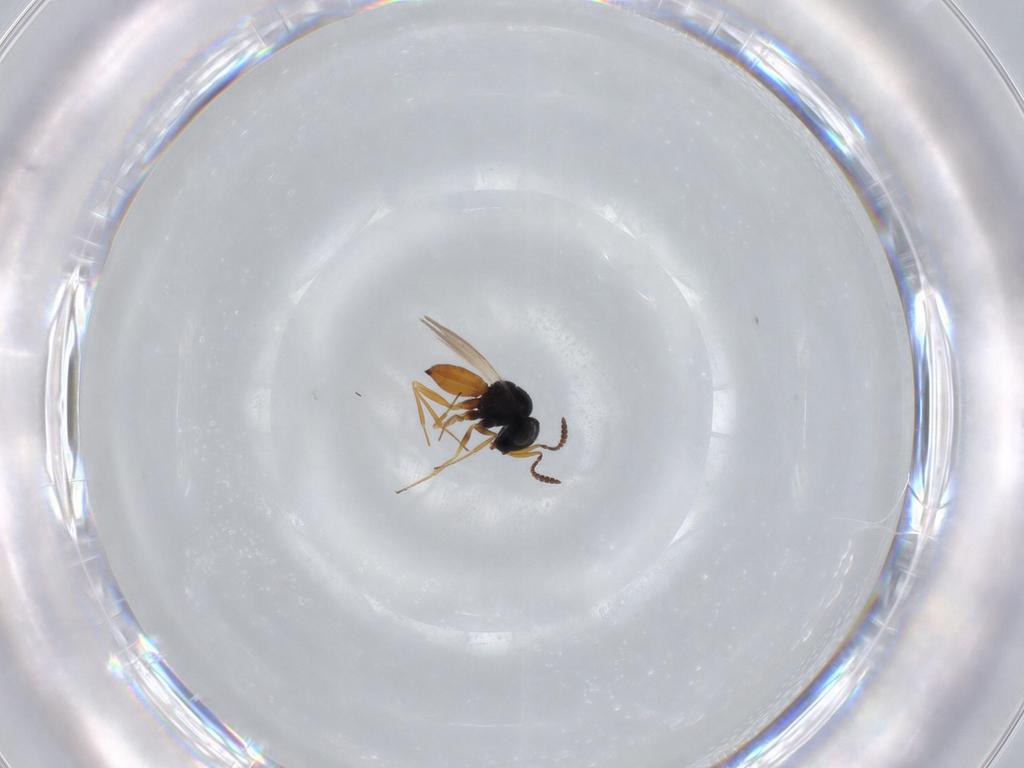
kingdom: Animalia
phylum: Arthropoda
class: Insecta
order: Hymenoptera
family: Scelionidae
